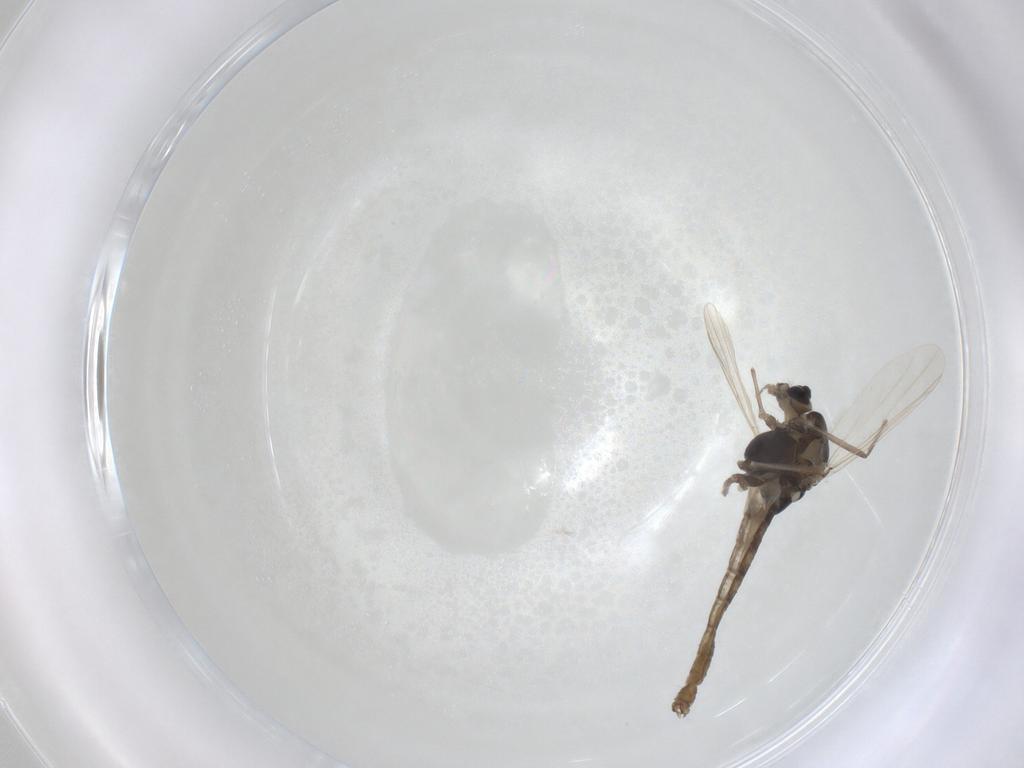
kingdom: Animalia
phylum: Arthropoda
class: Insecta
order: Diptera
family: Chironomidae
